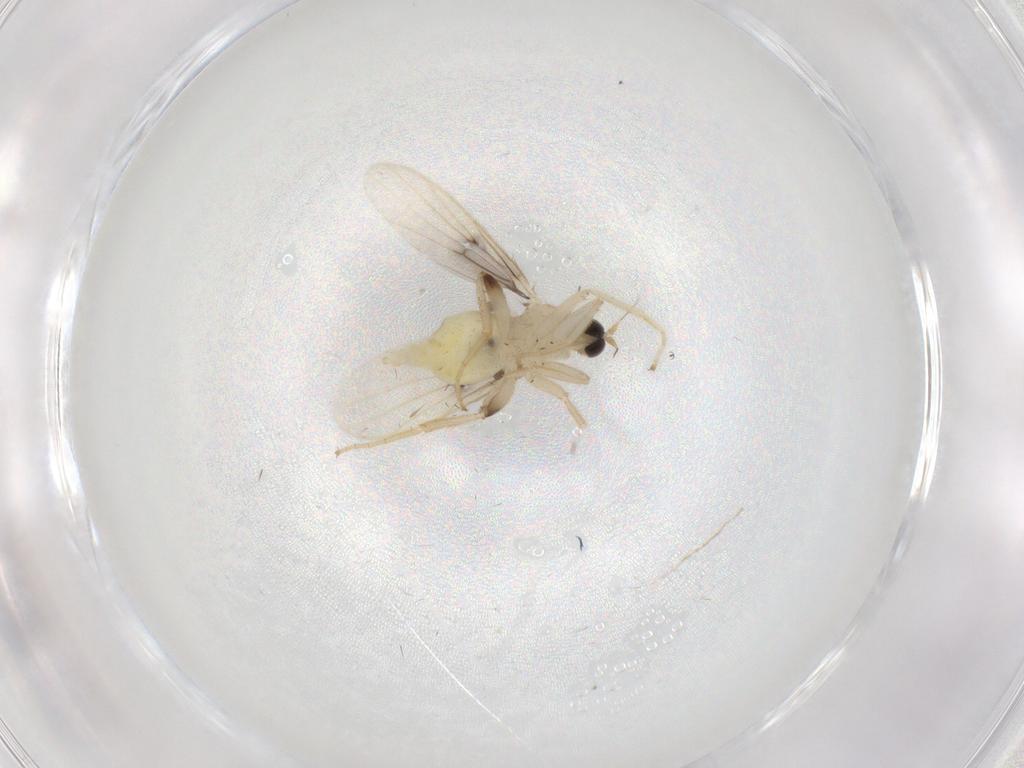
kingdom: Animalia
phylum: Arthropoda
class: Insecta
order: Diptera
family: Hybotidae
